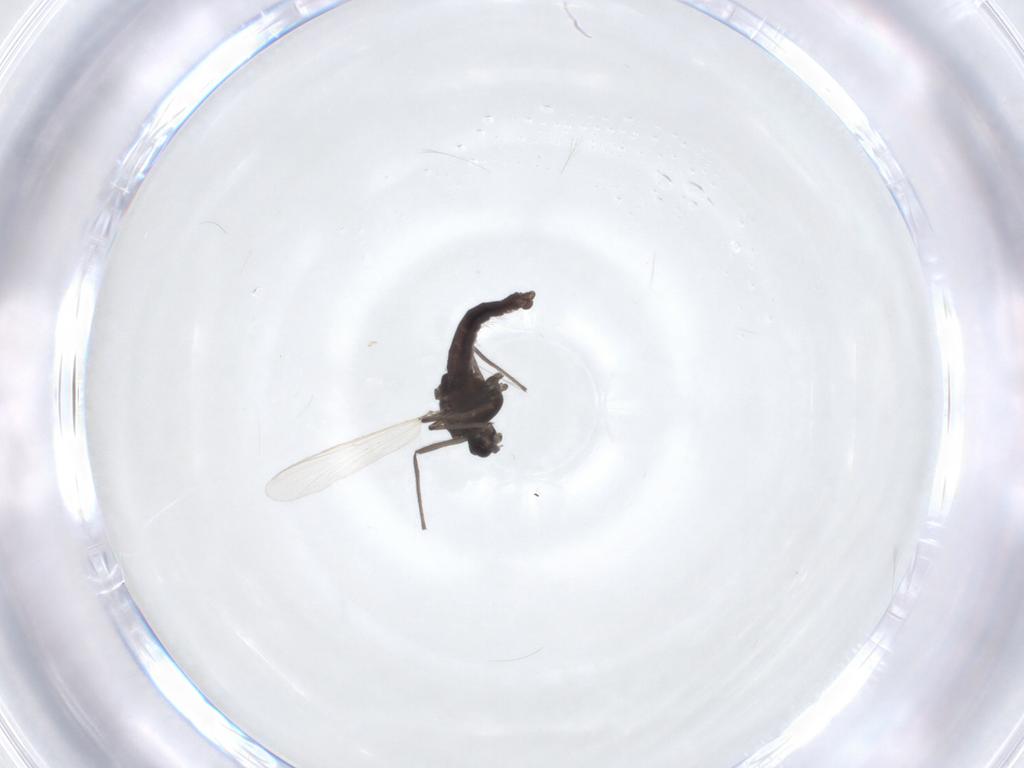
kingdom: Animalia
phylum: Arthropoda
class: Insecta
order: Diptera
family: Chironomidae
